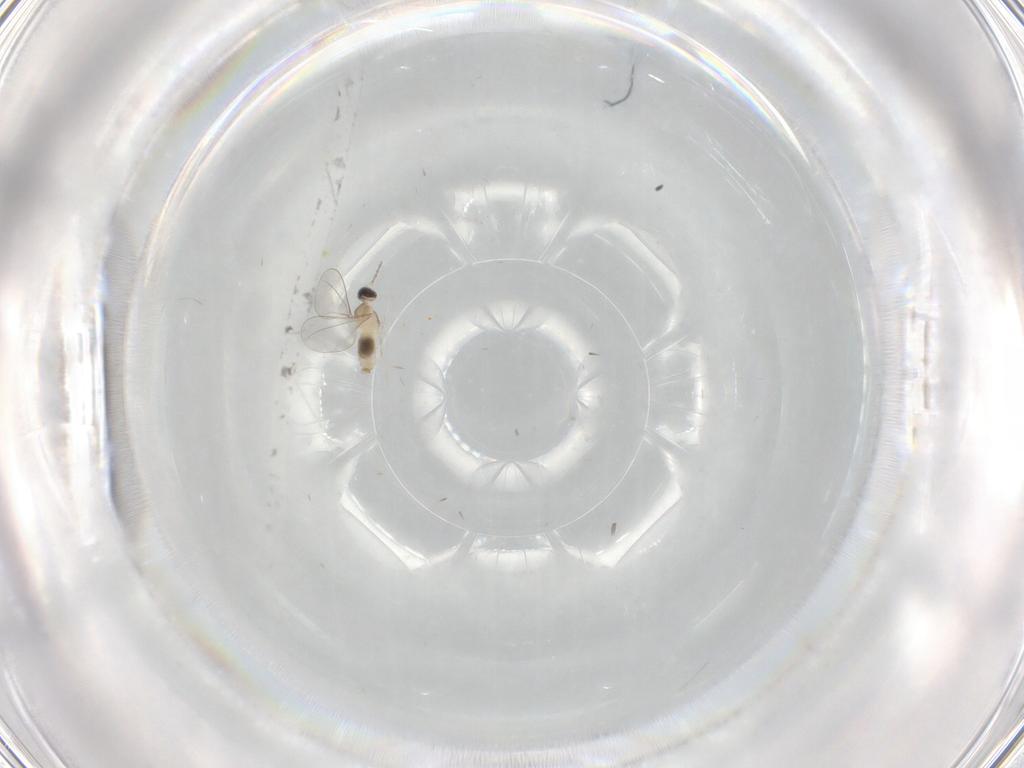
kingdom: Animalia
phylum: Arthropoda
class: Insecta
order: Diptera
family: Cecidomyiidae
